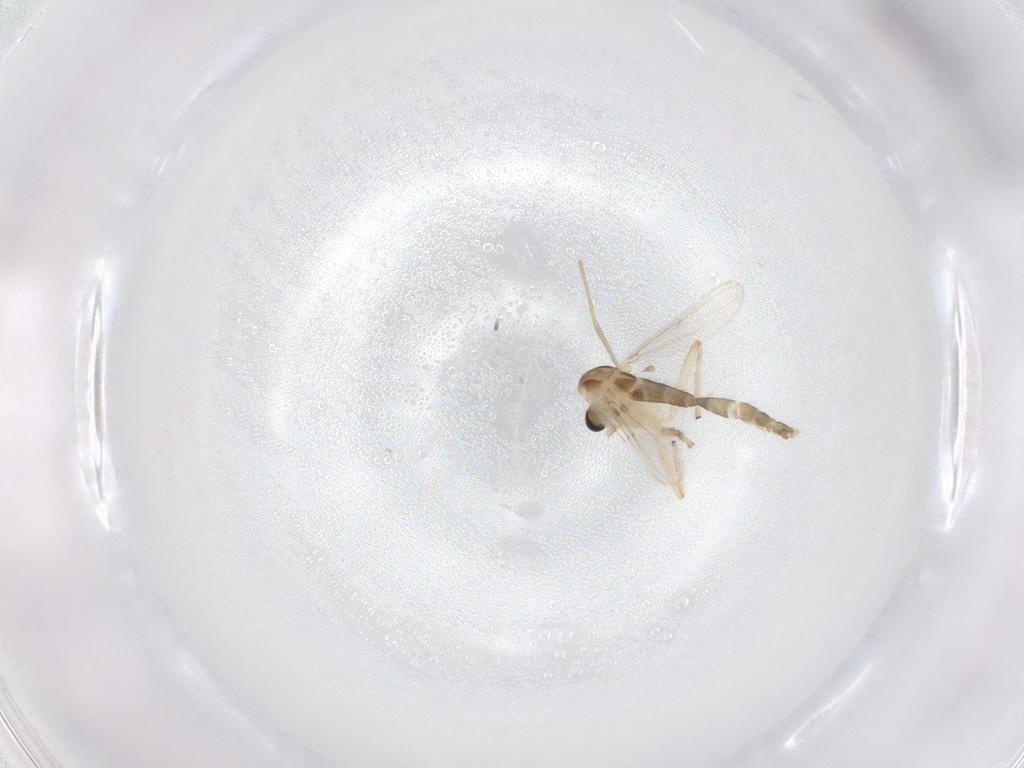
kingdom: Animalia
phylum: Arthropoda
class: Insecta
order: Diptera
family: Chironomidae
